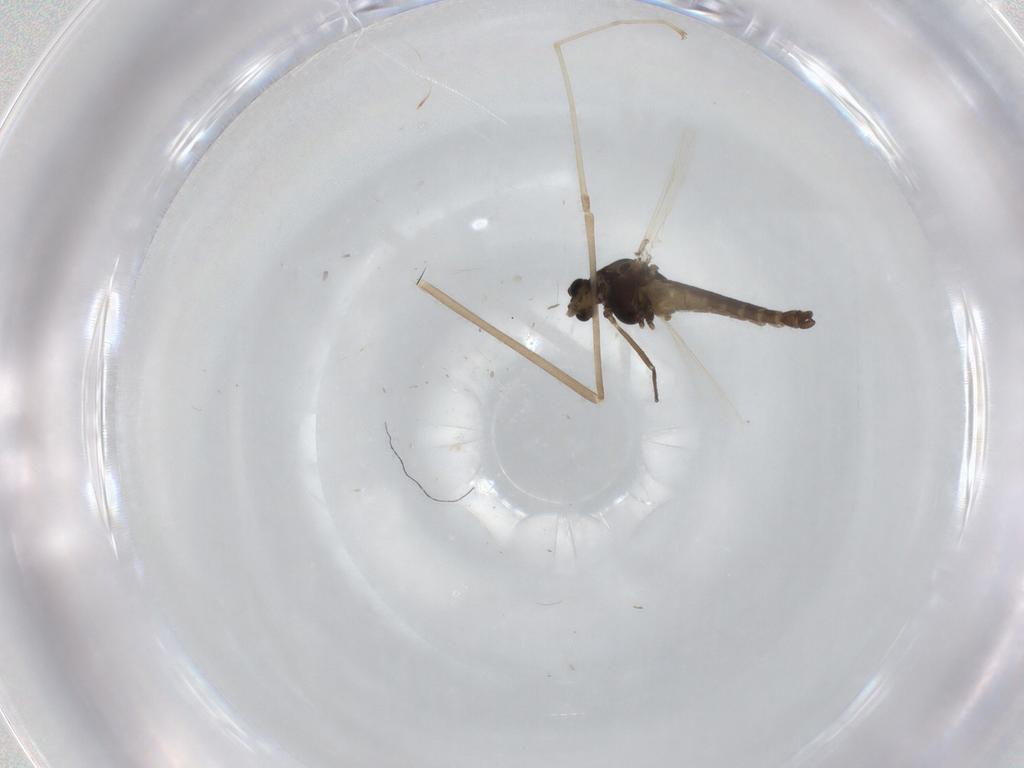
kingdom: Animalia
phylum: Arthropoda
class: Insecta
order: Diptera
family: Chironomidae
